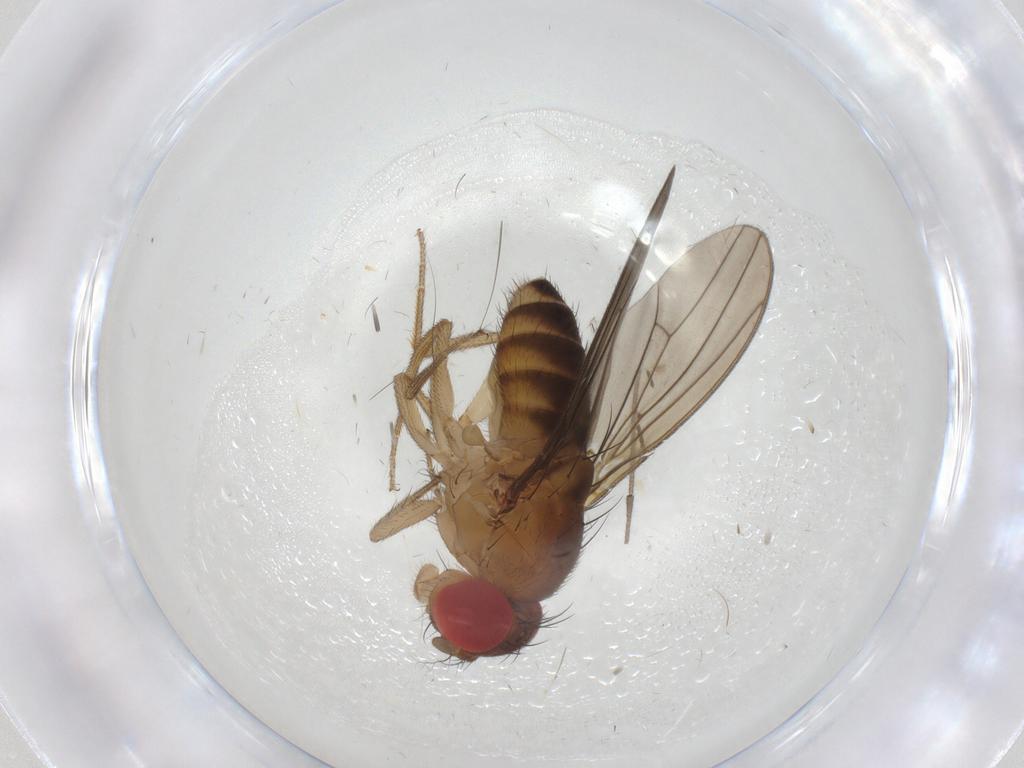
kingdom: Animalia
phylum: Arthropoda
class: Insecta
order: Diptera
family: Drosophilidae
